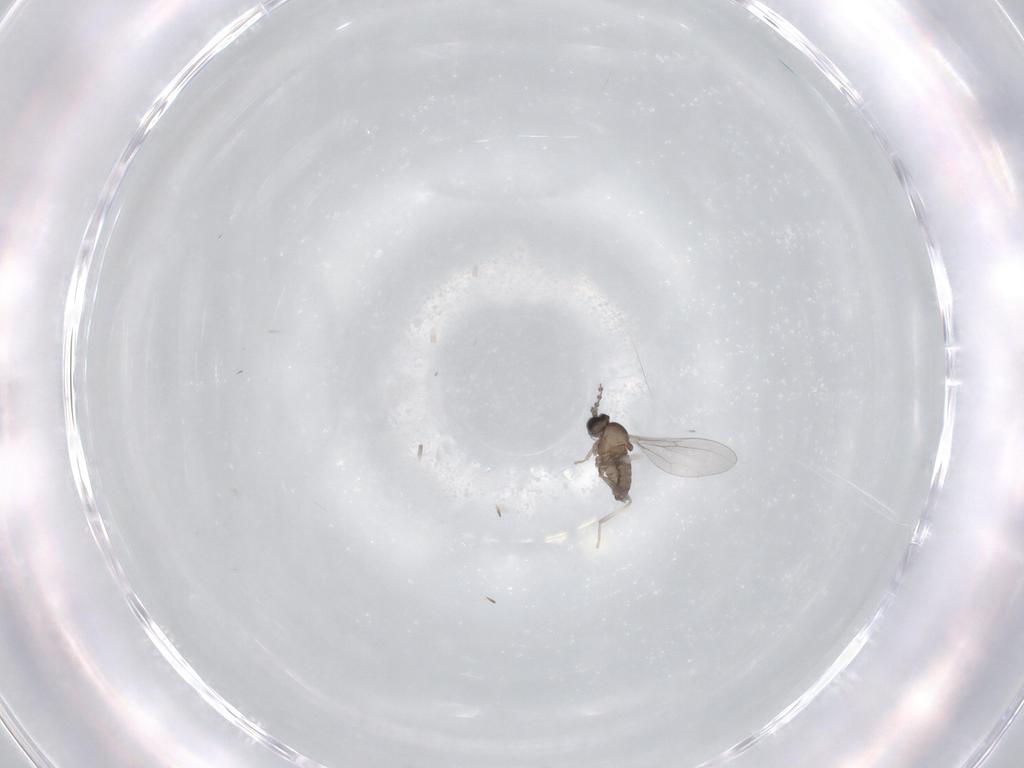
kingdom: Animalia
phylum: Arthropoda
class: Insecta
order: Diptera
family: Cecidomyiidae
